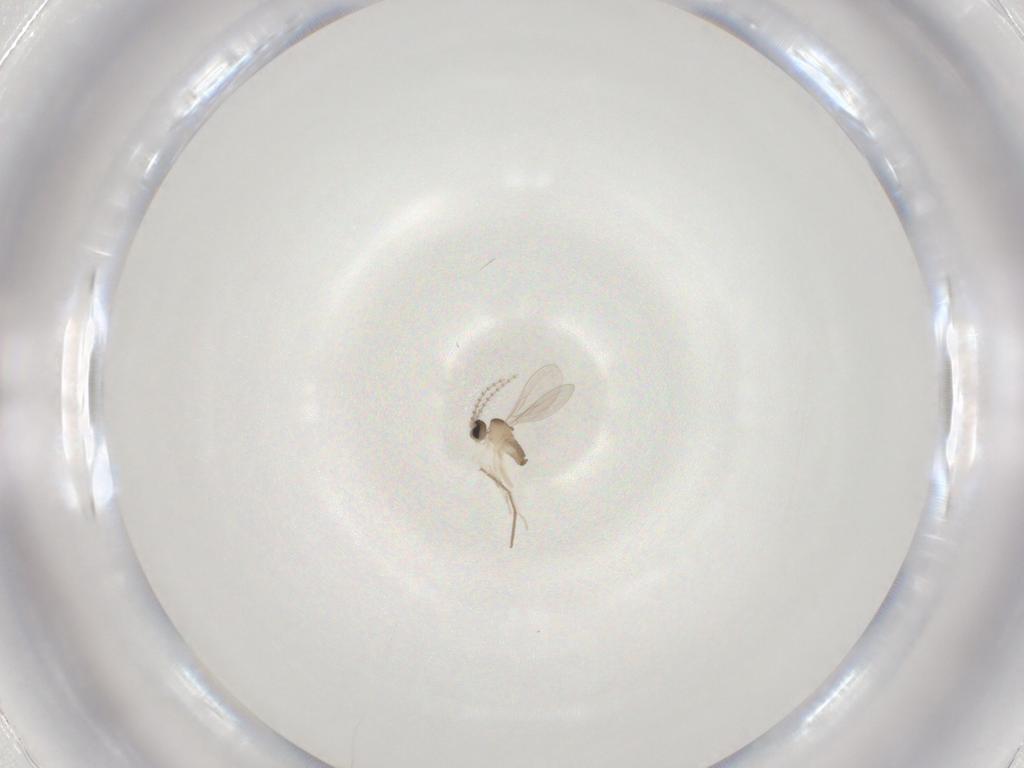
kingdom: Animalia
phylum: Arthropoda
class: Insecta
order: Diptera
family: Cecidomyiidae
